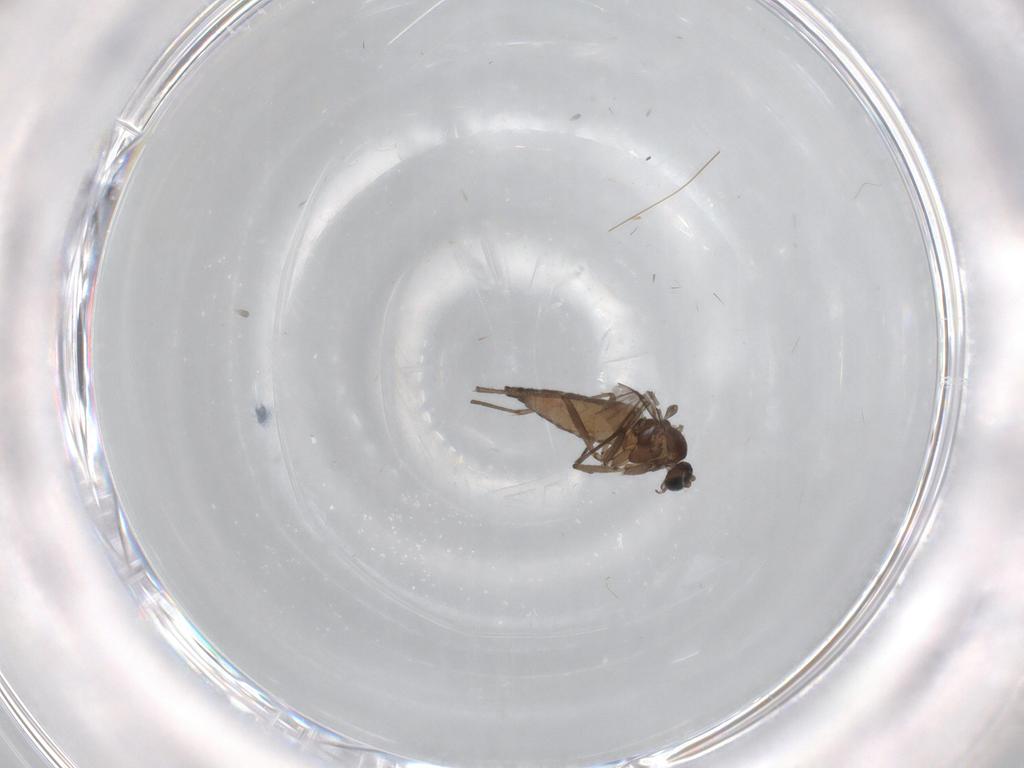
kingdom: Animalia
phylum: Arthropoda
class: Insecta
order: Diptera
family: Sciaridae
